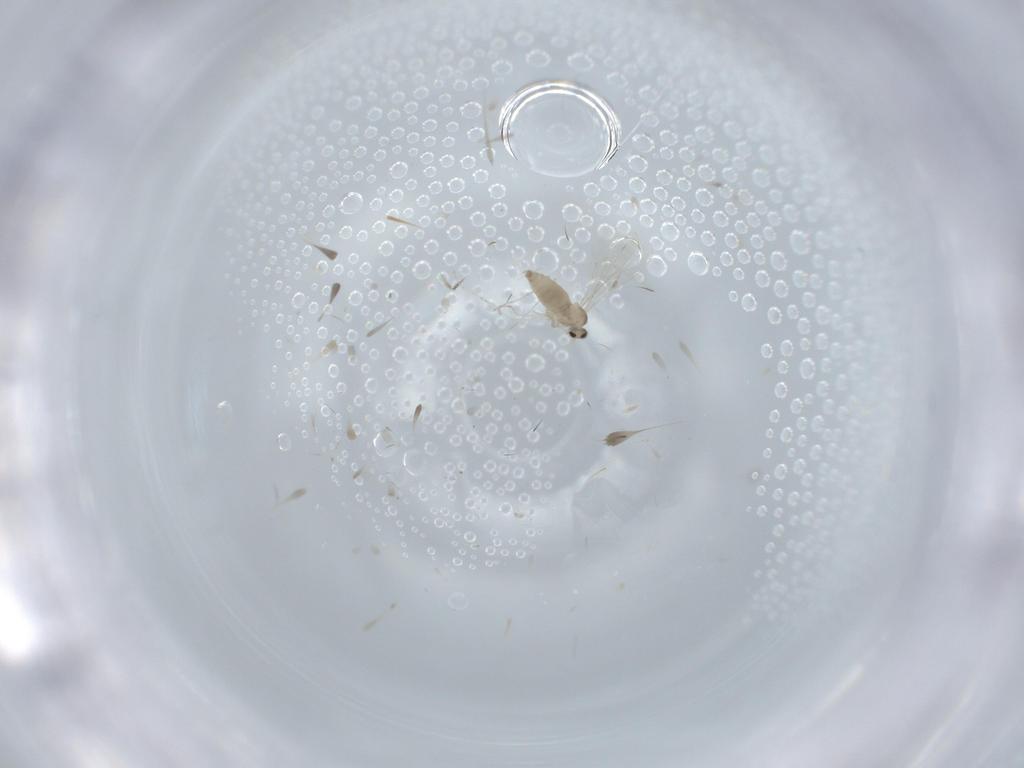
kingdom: Animalia
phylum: Arthropoda
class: Insecta
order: Diptera
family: Cecidomyiidae
